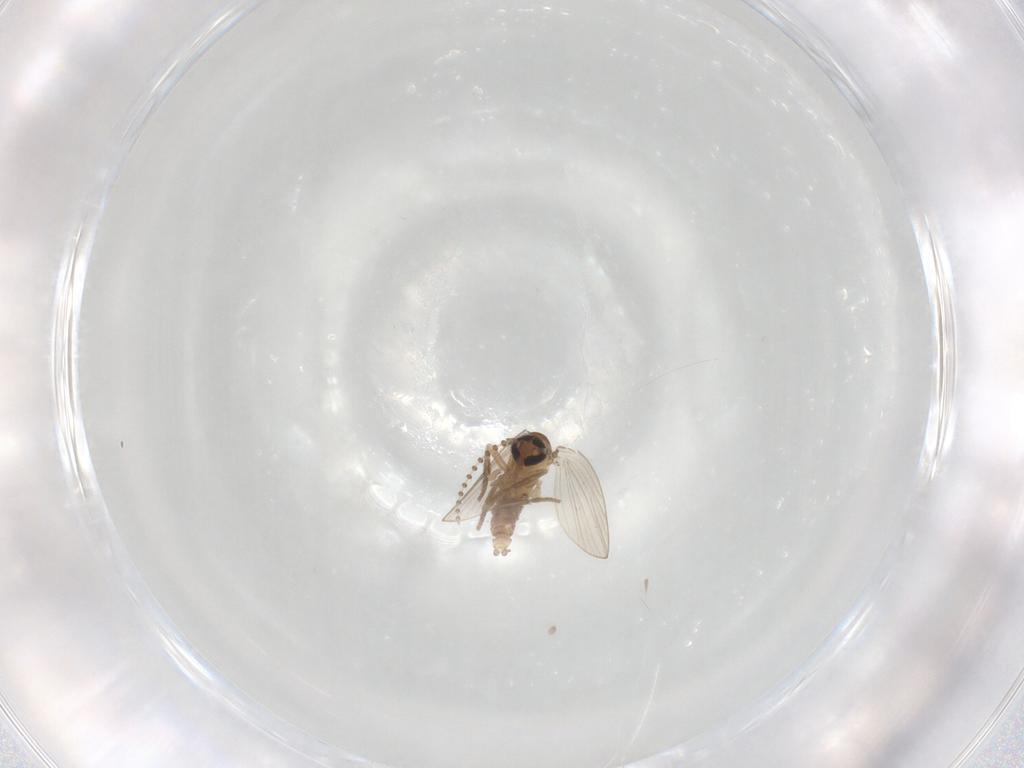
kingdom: Animalia
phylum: Arthropoda
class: Insecta
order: Diptera
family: Psychodidae
